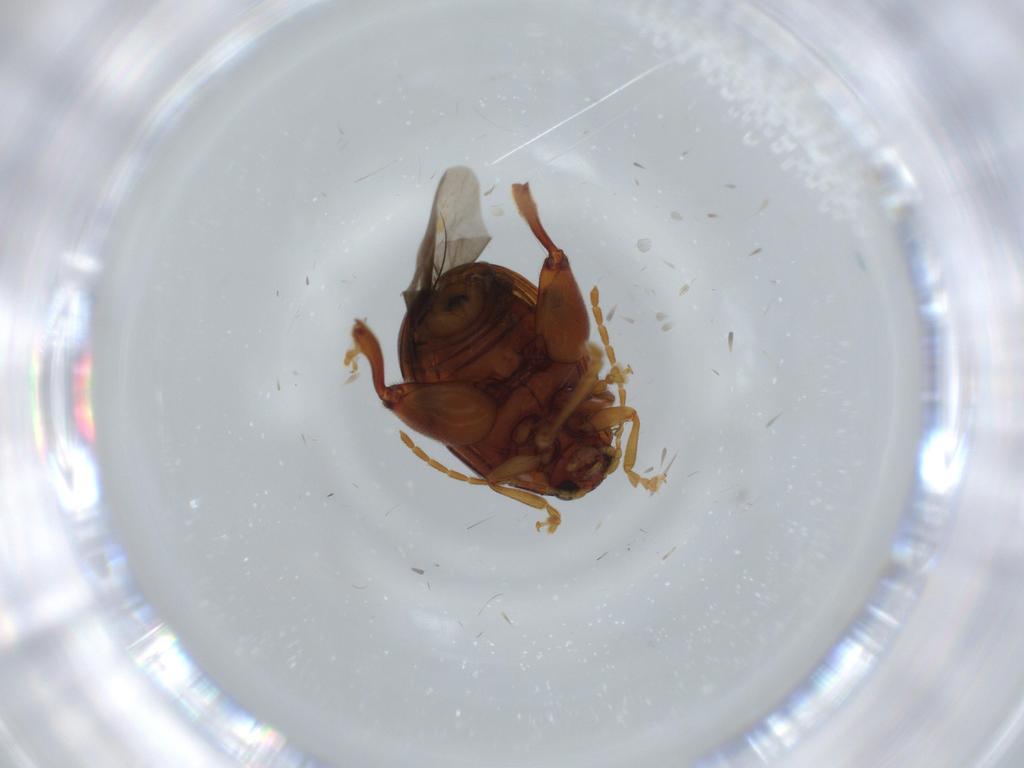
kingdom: Animalia
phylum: Arthropoda
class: Insecta
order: Coleoptera
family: Chrysomelidae
